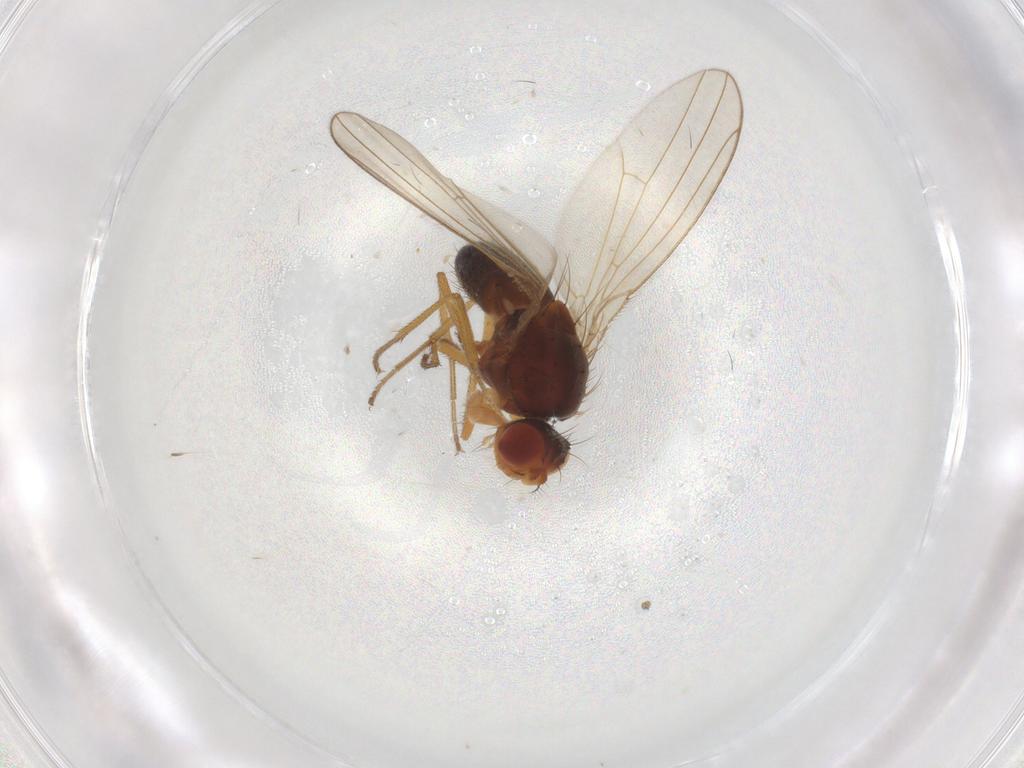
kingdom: Animalia
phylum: Arthropoda
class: Insecta
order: Diptera
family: Drosophilidae
